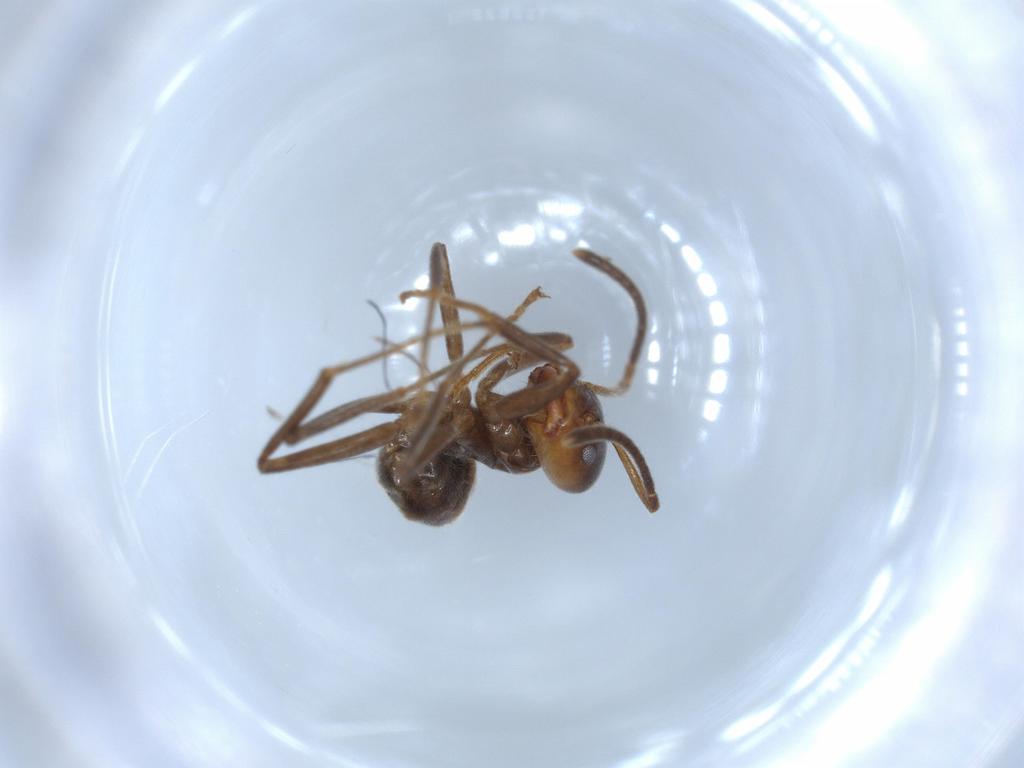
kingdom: Animalia
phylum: Arthropoda
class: Insecta
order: Hymenoptera
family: Formicidae
